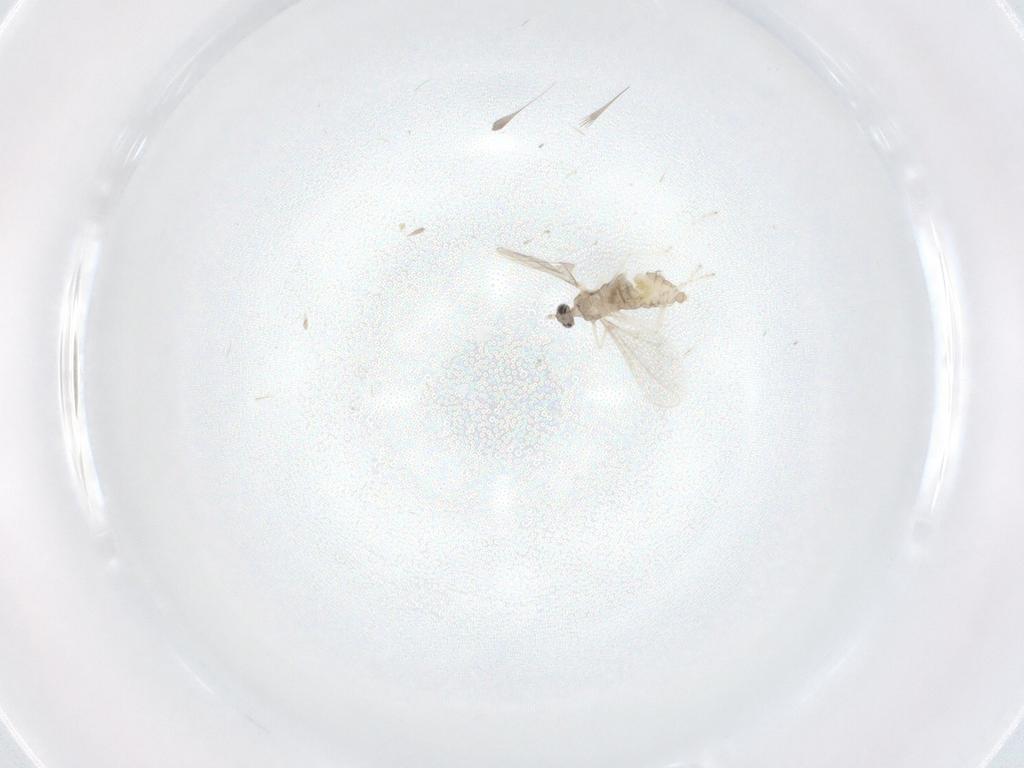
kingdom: Animalia
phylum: Arthropoda
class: Insecta
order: Diptera
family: Cecidomyiidae
